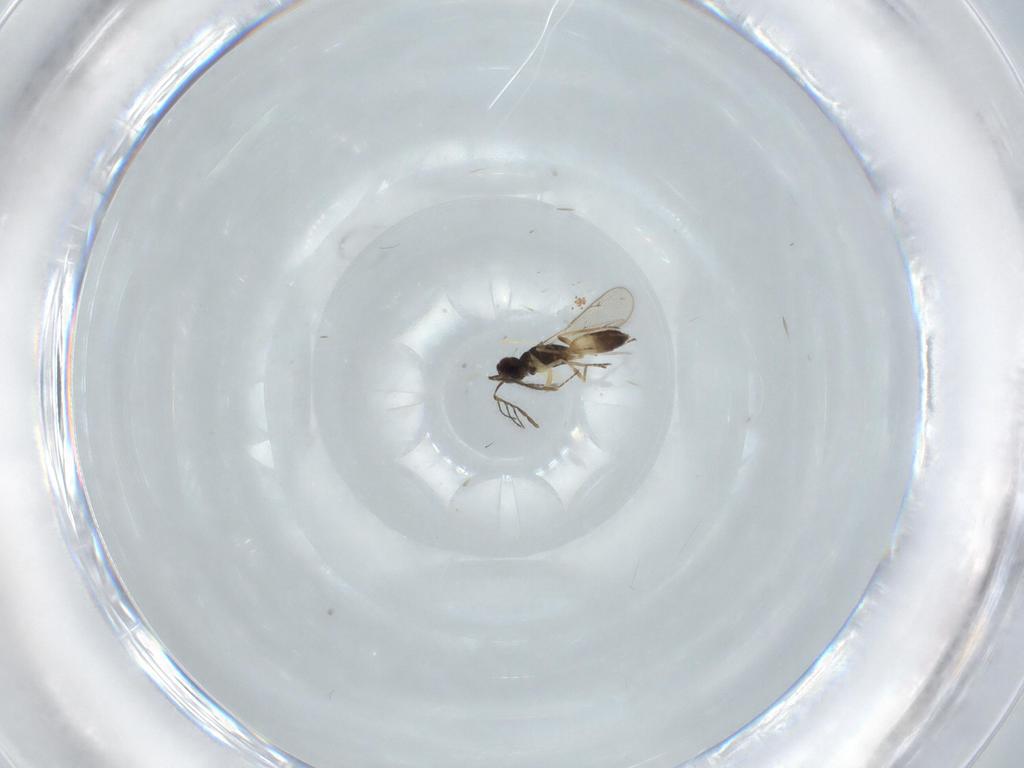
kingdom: Animalia
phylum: Arthropoda
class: Insecta
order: Hymenoptera
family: Eulophidae
